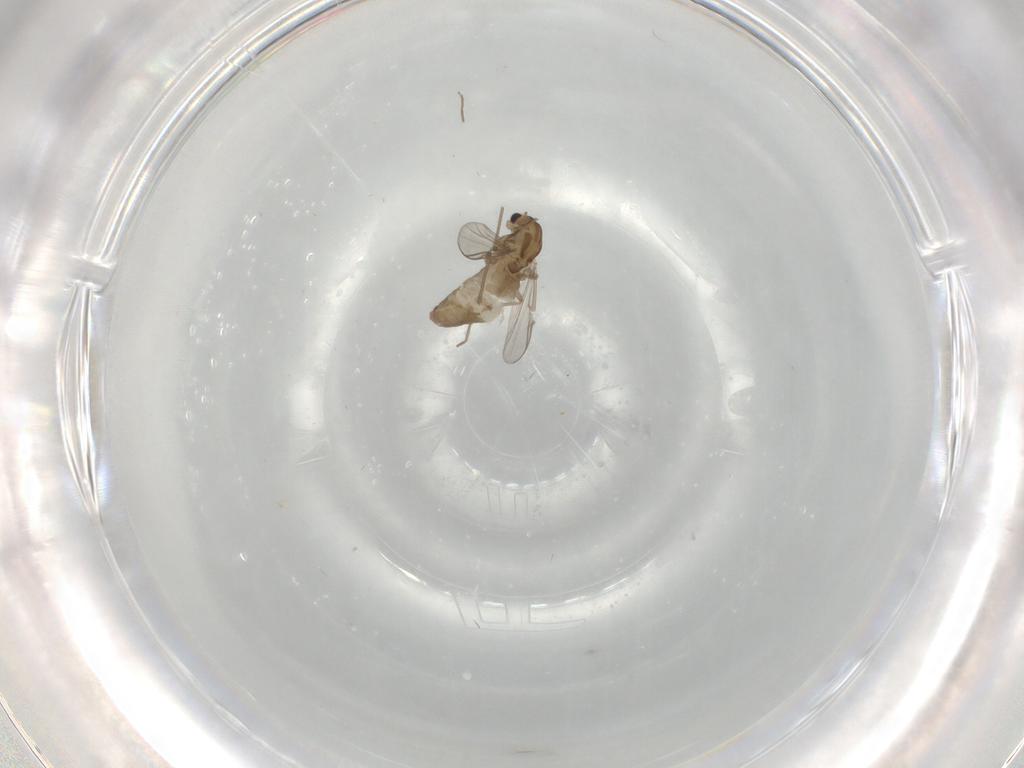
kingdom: Animalia
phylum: Arthropoda
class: Insecta
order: Diptera
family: Chironomidae
